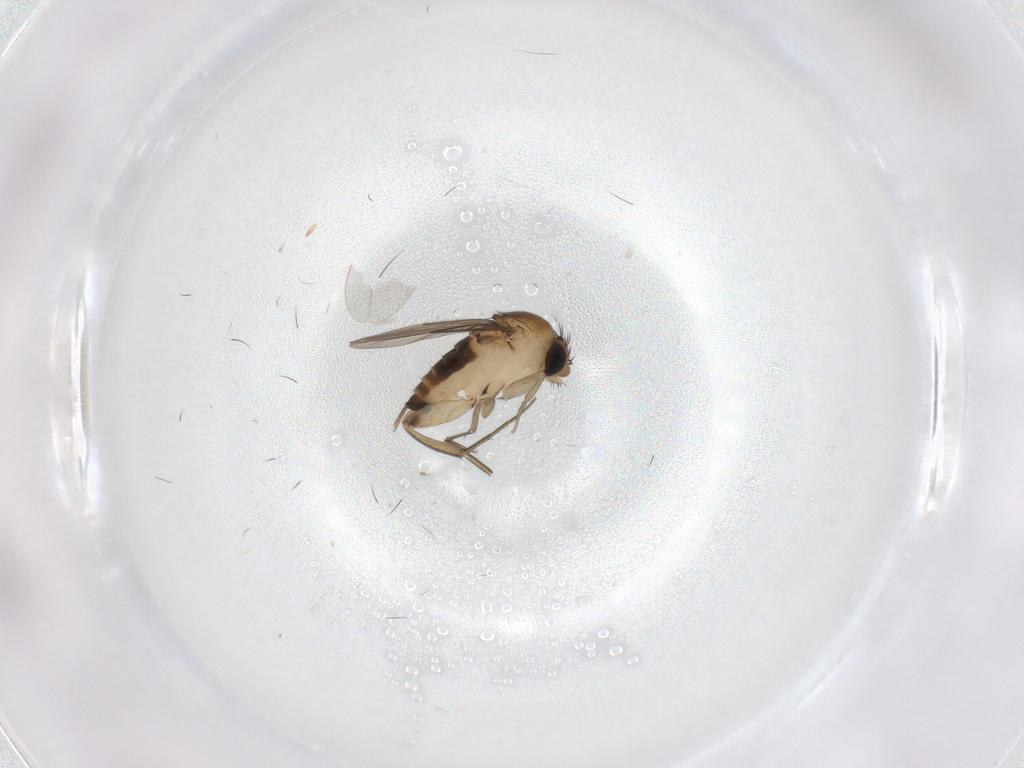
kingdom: Animalia
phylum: Arthropoda
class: Insecta
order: Diptera
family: Phoridae
